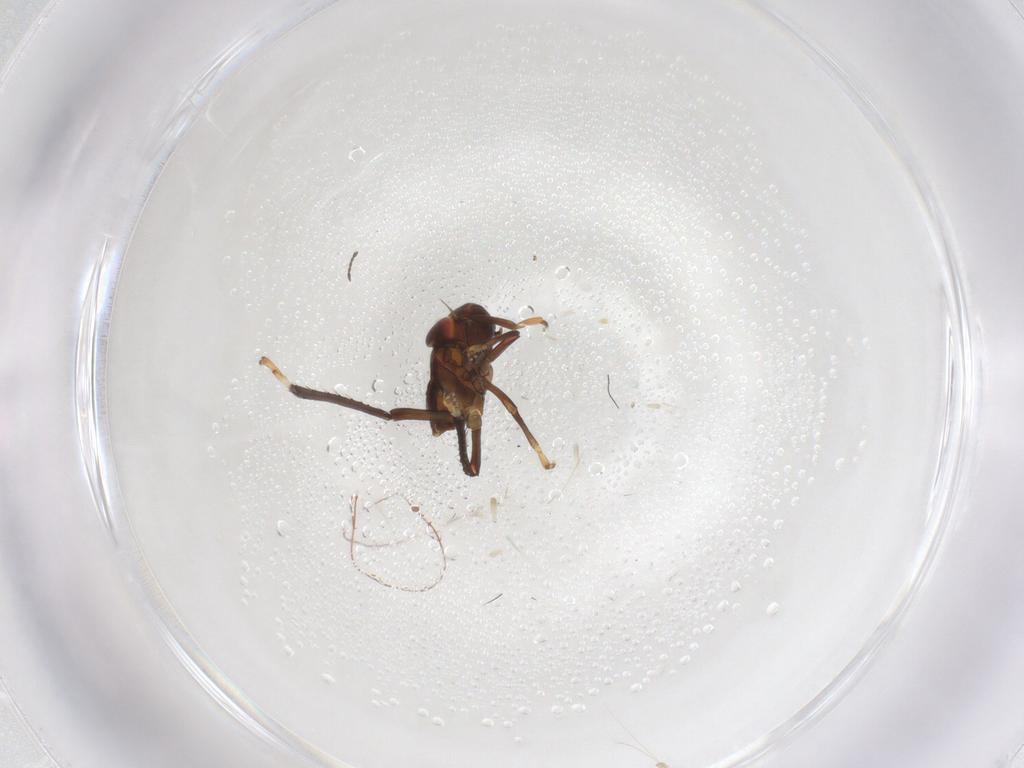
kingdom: Animalia
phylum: Arthropoda
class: Insecta
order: Hemiptera
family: Cicadellidae
